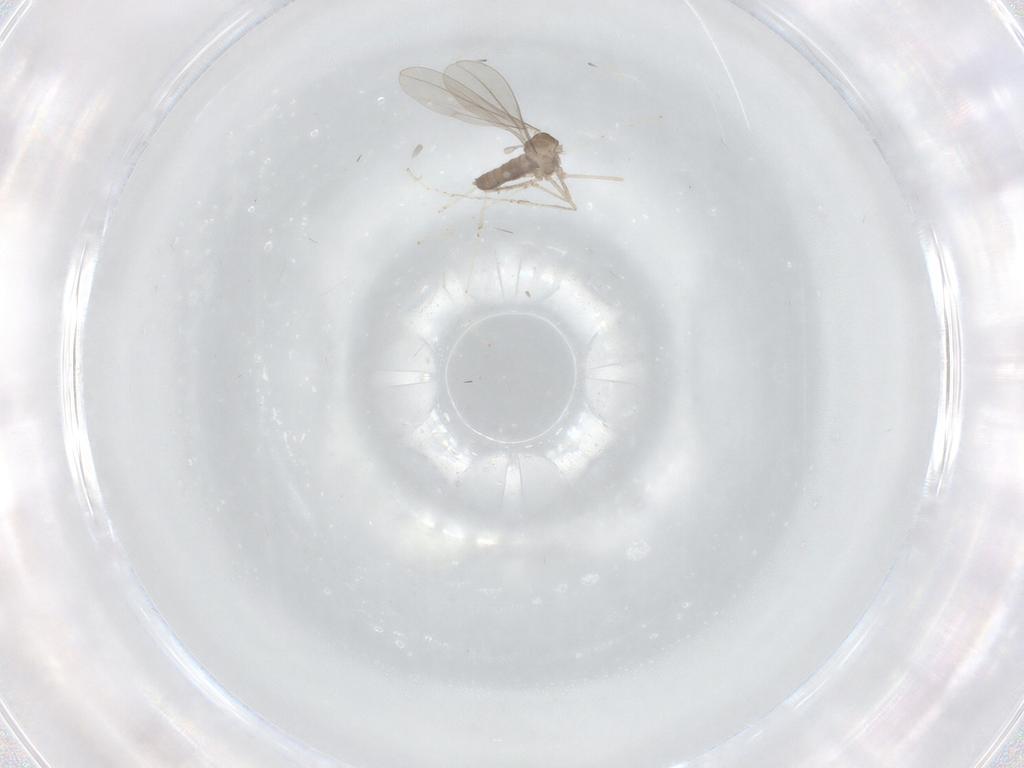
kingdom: Animalia
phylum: Arthropoda
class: Insecta
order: Diptera
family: Cecidomyiidae
